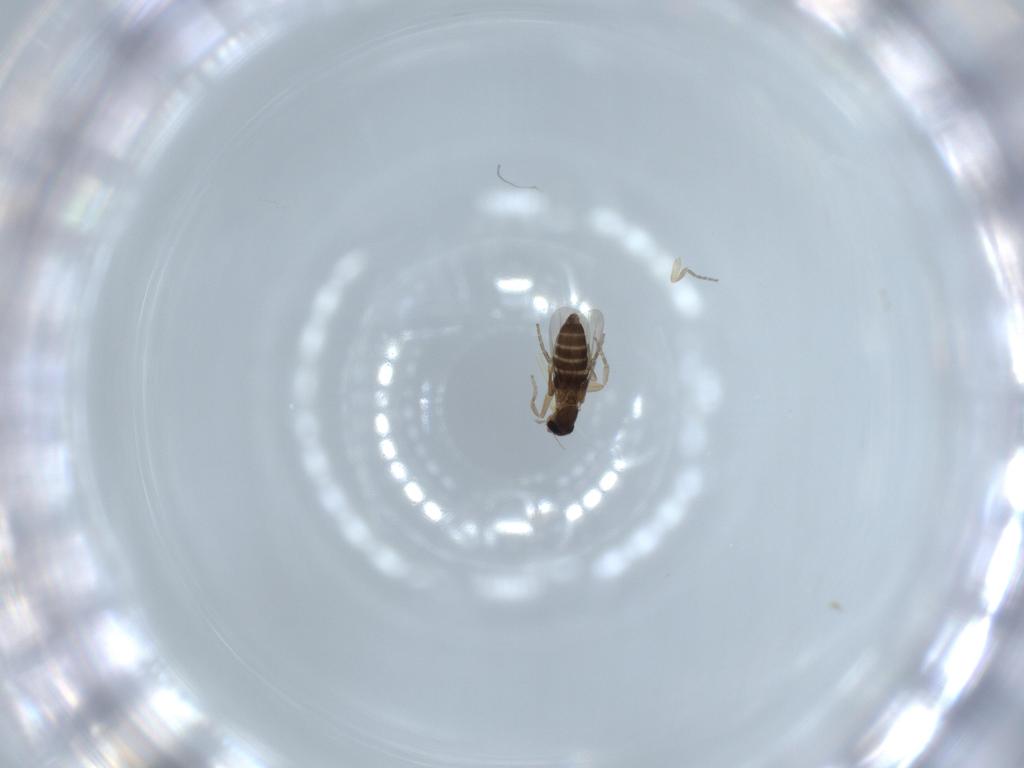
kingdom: Animalia
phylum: Arthropoda
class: Insecta
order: Diptera
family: Phoridae
